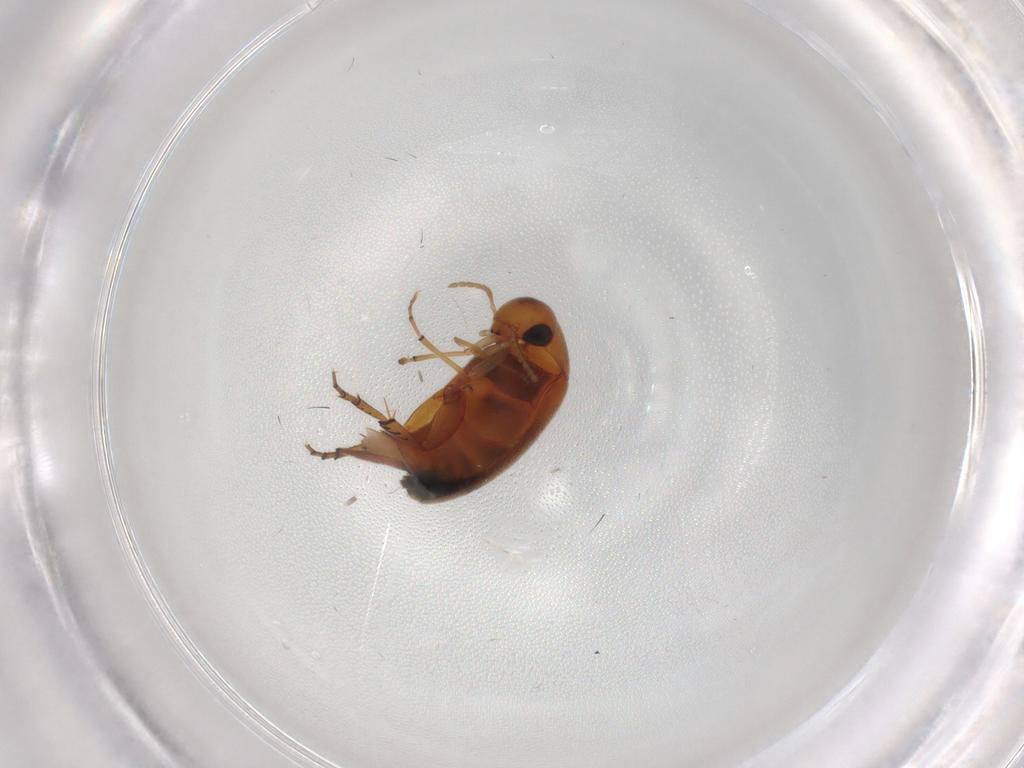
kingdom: Animalia
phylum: Arthropoda
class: Insecta
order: Coleoptera
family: Mordellidae
